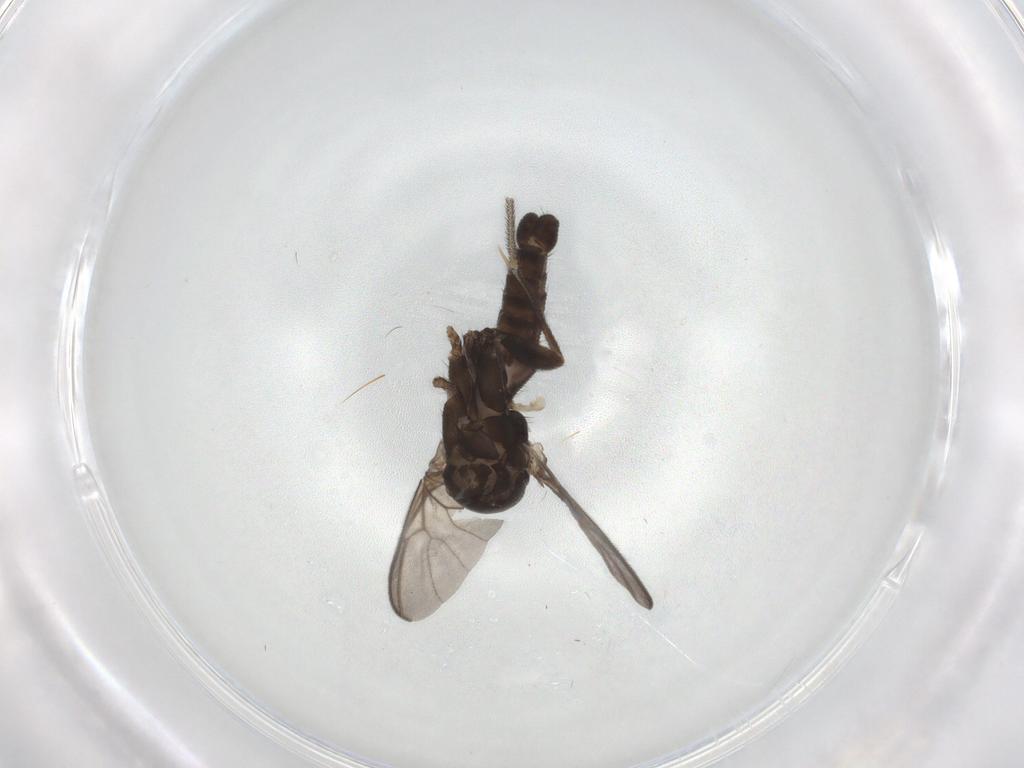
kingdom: Animalia
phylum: Arthropoda
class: Insecta
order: Diptera
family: Sciaridae
